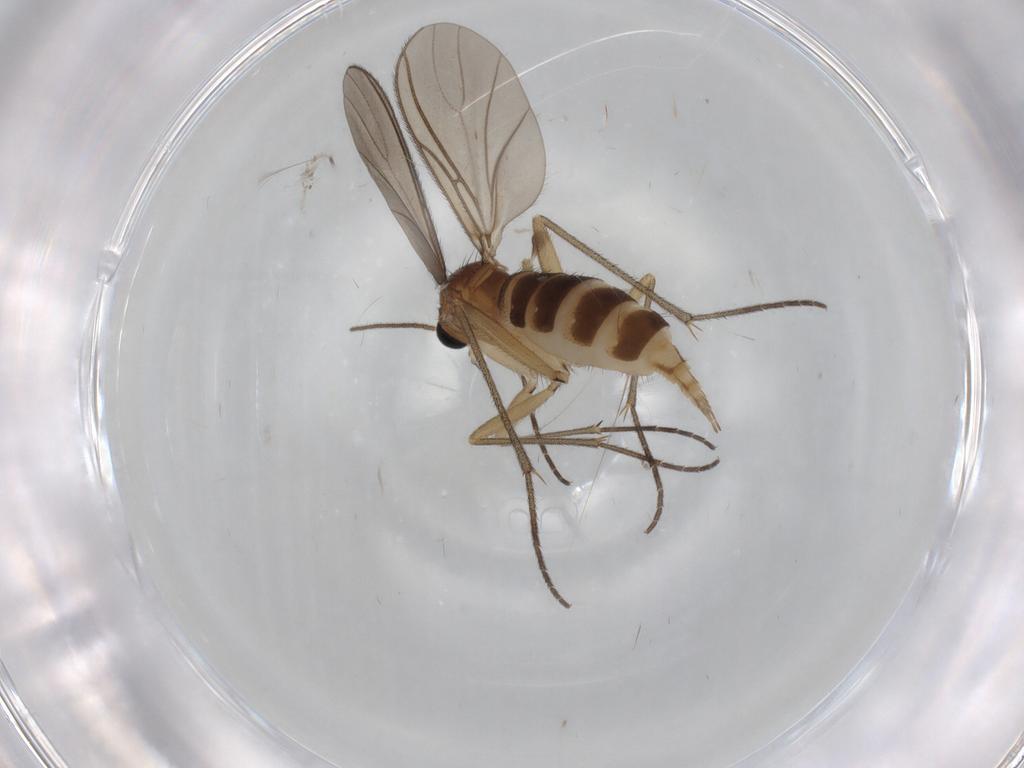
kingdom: Animalia
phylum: Arthropoda
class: Insecta
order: Diptera
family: Sciaridae
